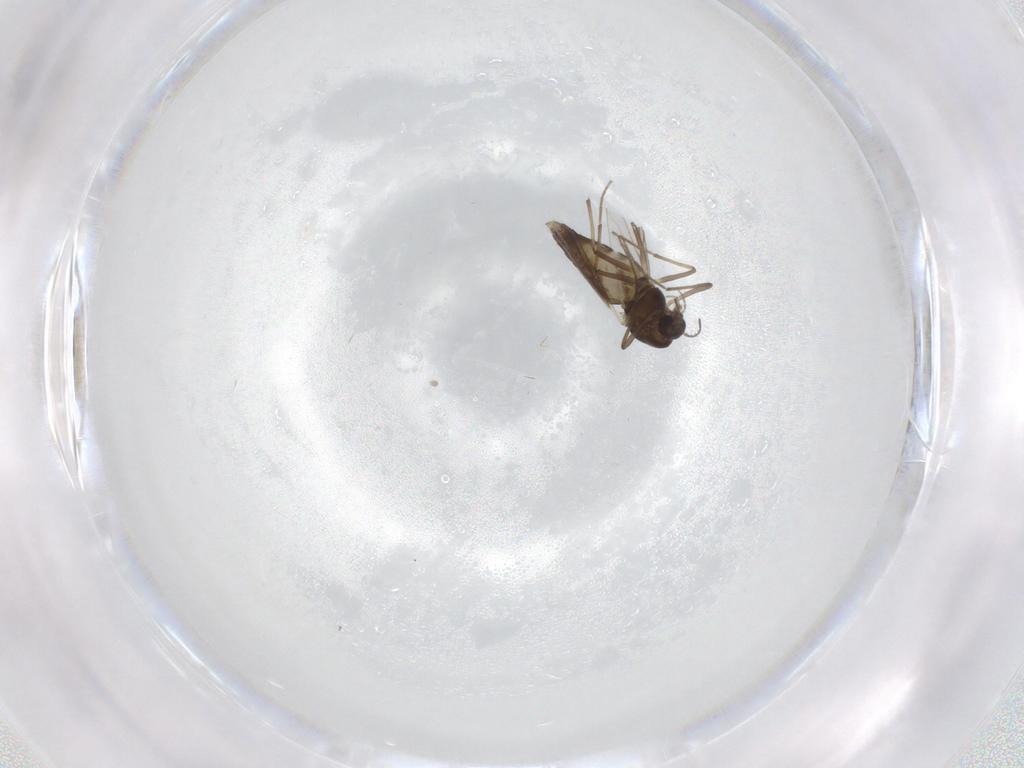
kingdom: Animalia
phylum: Arthropoda
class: Insecta
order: Diptera
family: Chironomidae
